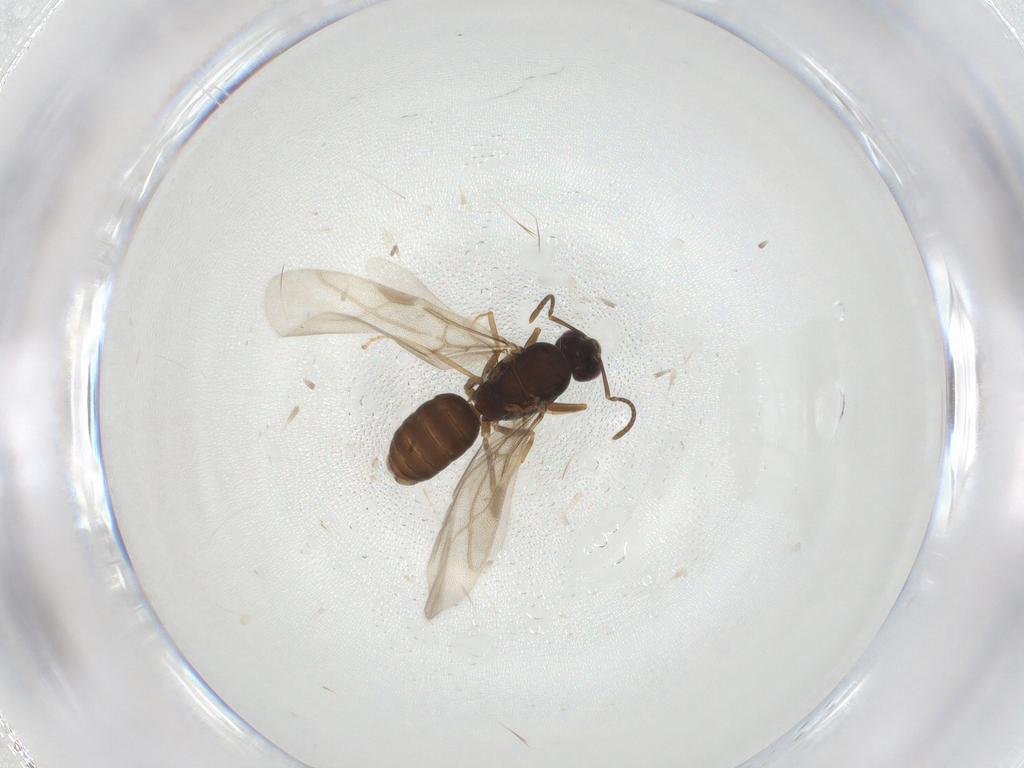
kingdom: Animalia
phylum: Arthropoda
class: Insecta
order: Hymenoptera
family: Formicidae
